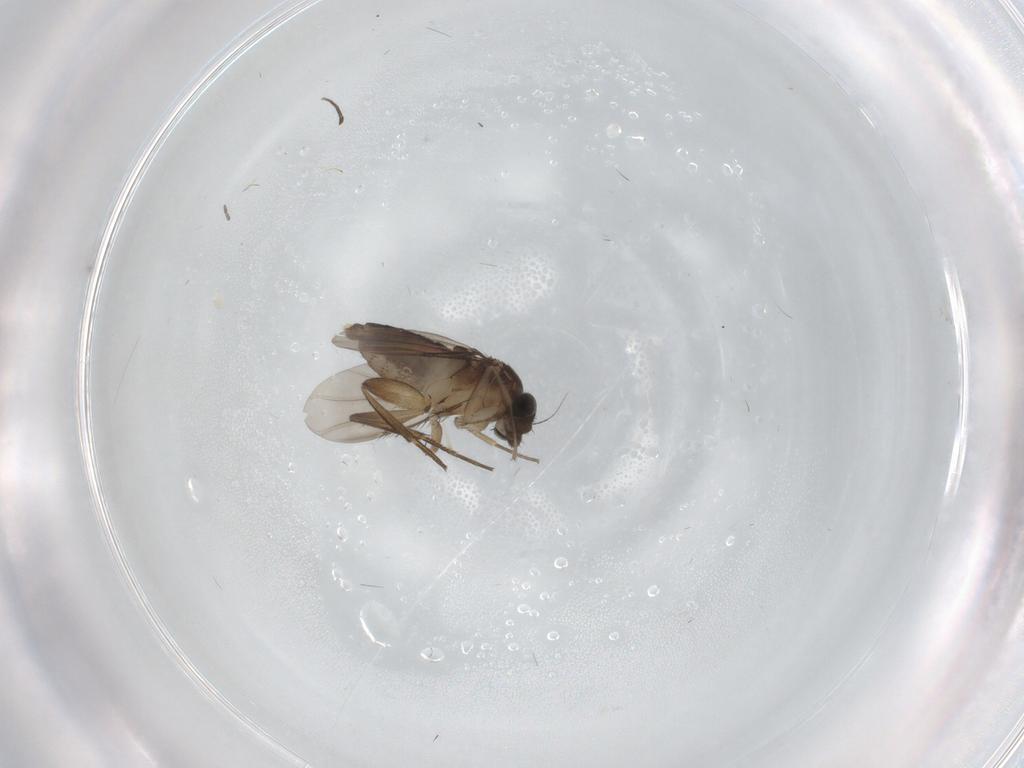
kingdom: Animalia
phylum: Arthropoda
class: Insecta
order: Diptera
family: Phoridae
